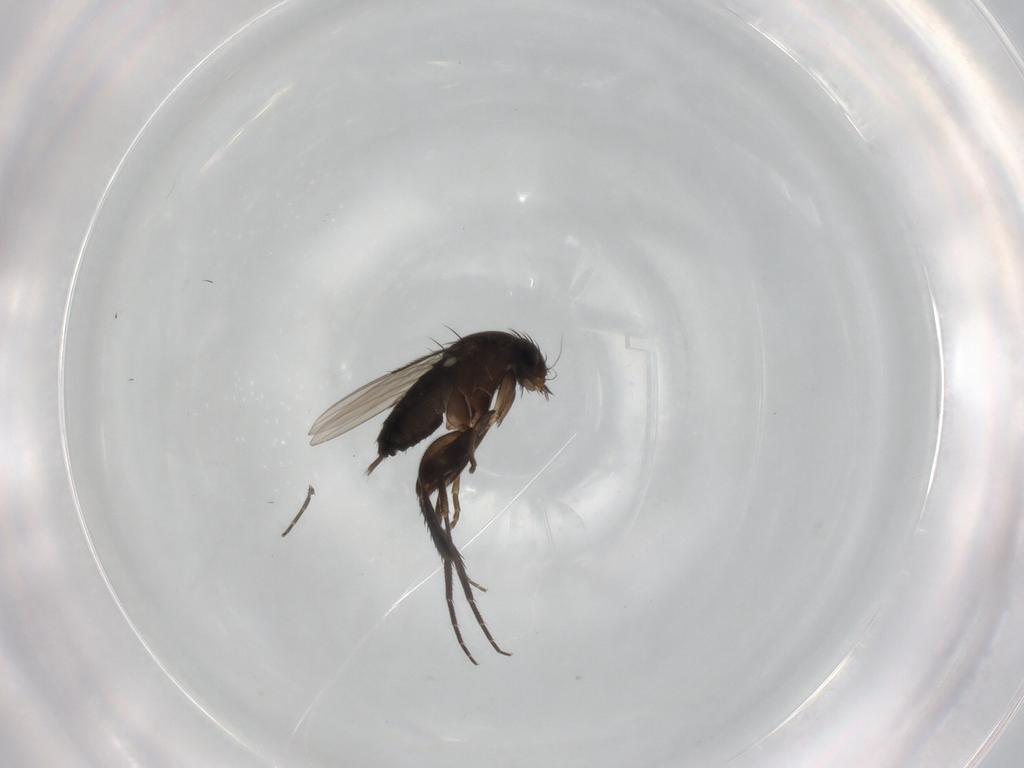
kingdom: Animalia
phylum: Arthropoda
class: Insecta
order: Diptera
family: Phoridae
